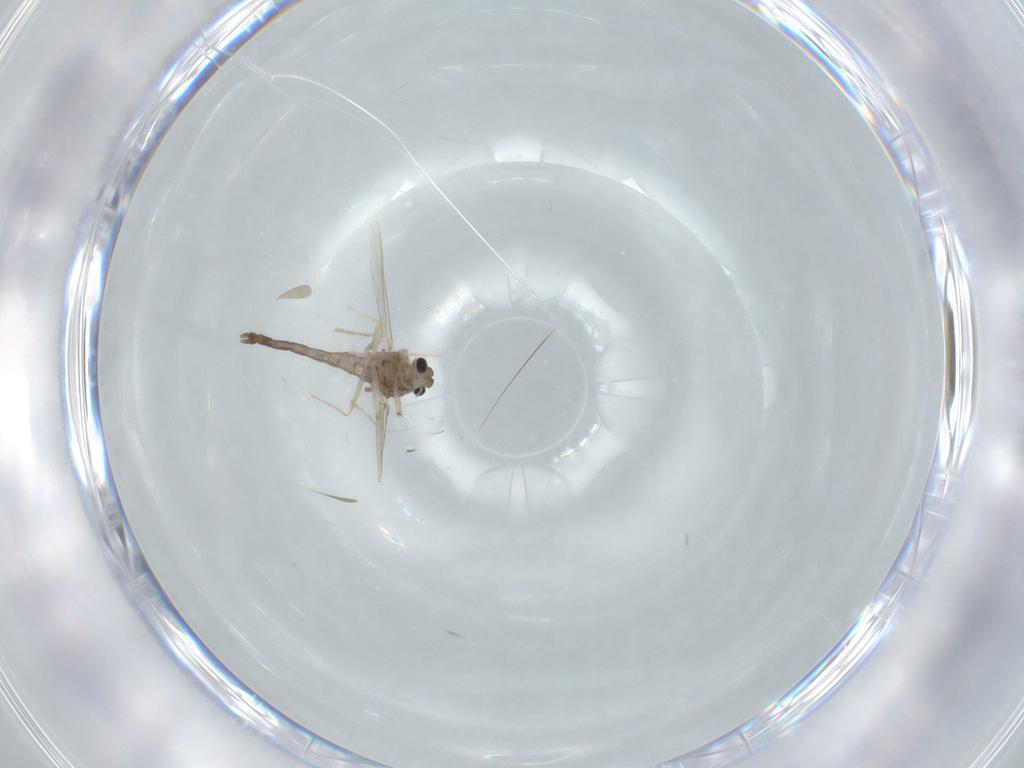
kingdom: Animalia
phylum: Arthropoda
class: Insecta
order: Diptera
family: Chironomidae
